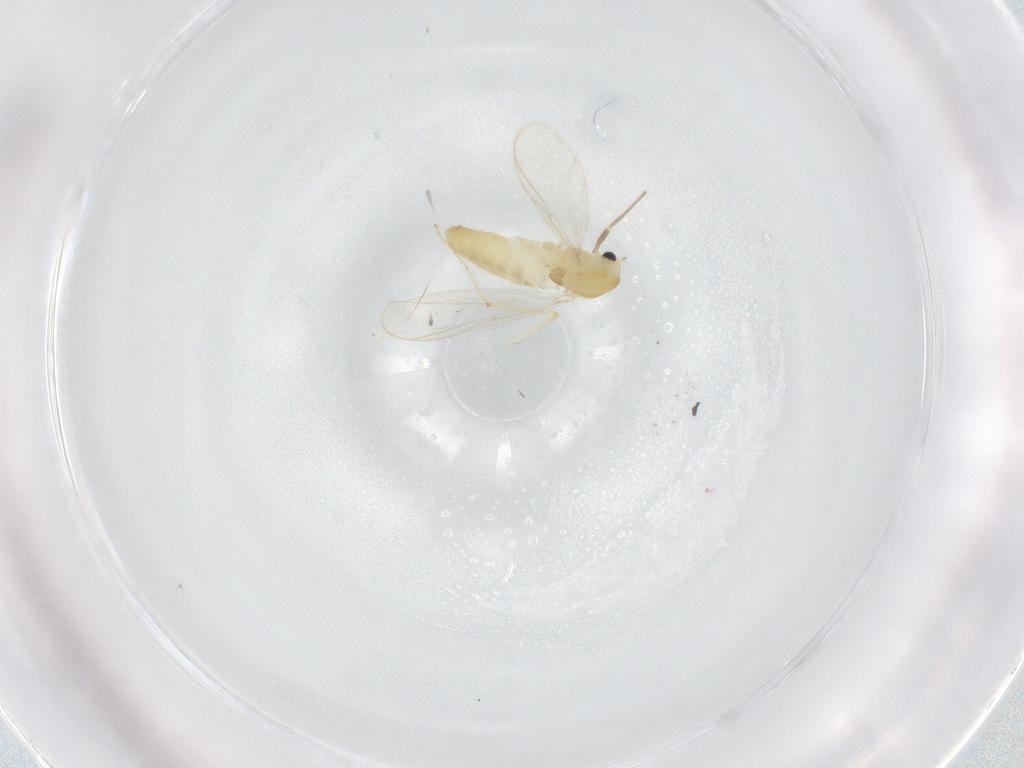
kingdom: Animalia
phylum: Arthropoda
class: Insecta
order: Diptera
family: Chironomidae
